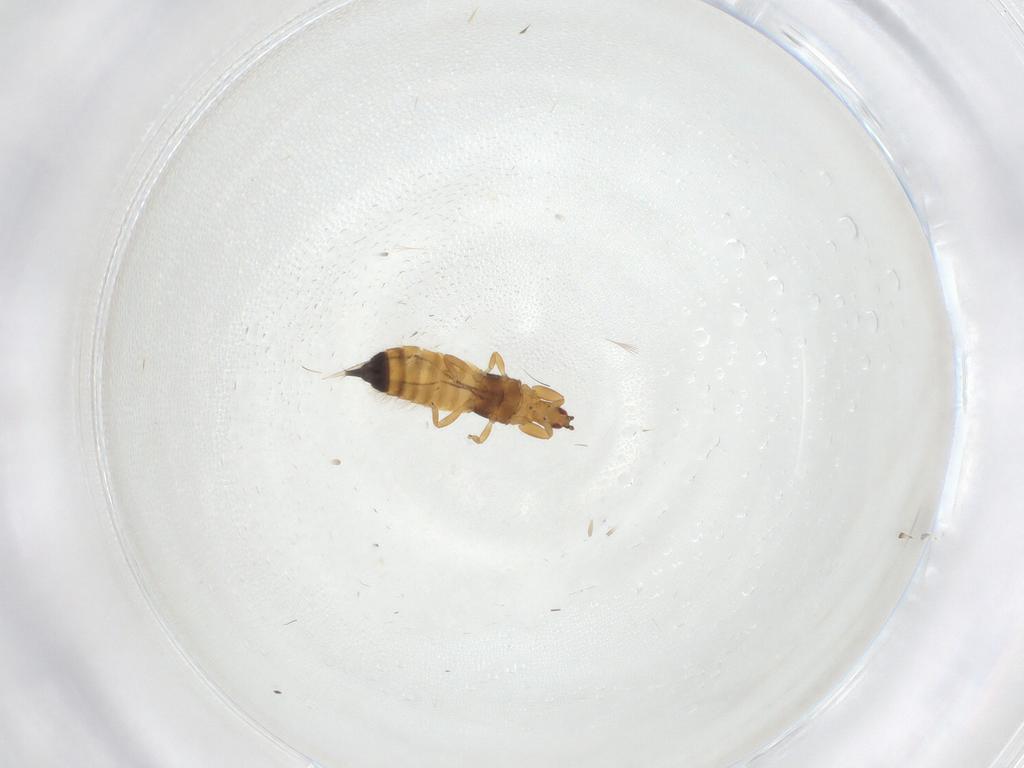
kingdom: Animalia
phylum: Arthropoda
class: Insecta
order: Thysanoptera
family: Phlaeothripidae
